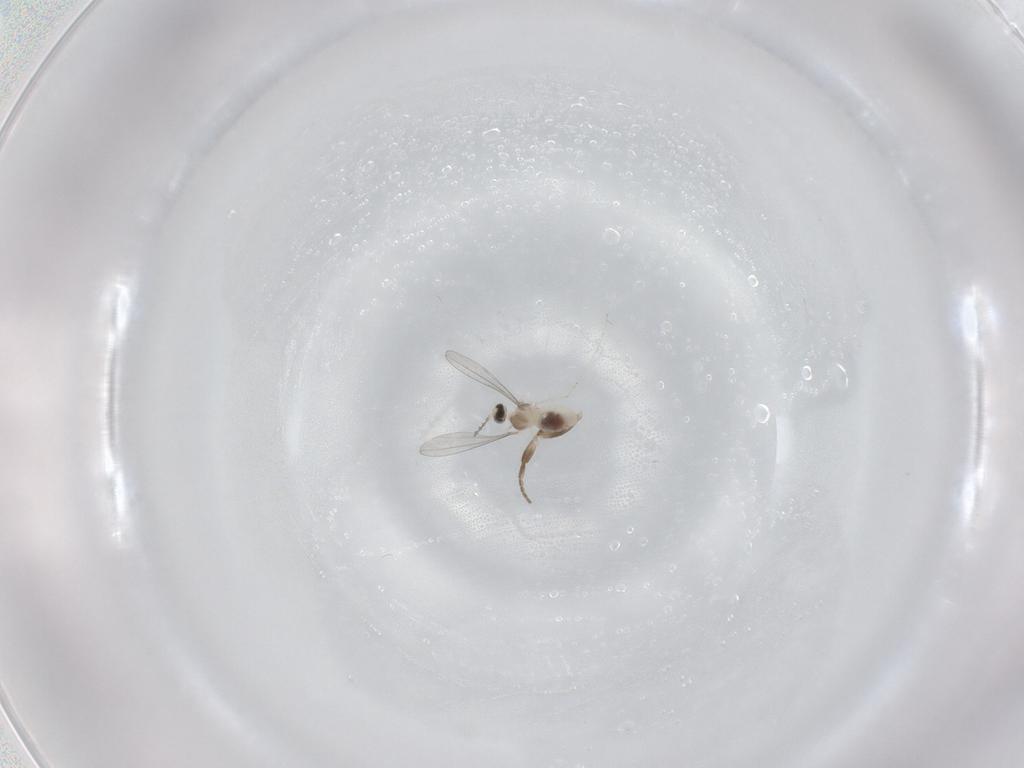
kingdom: Animalia
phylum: Arthropoda
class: Insecta
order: Diptera
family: Cecidomyiidae
